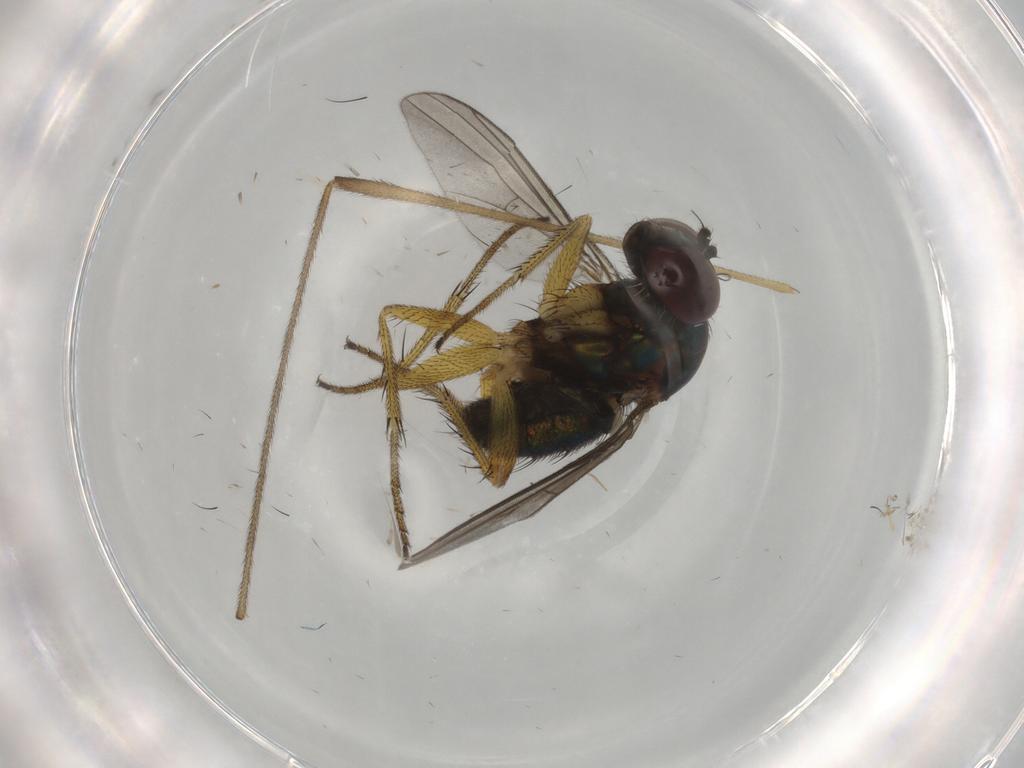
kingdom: Animalia
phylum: Arthropoda
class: Insecta
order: Diptera
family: Dolichopodidae
